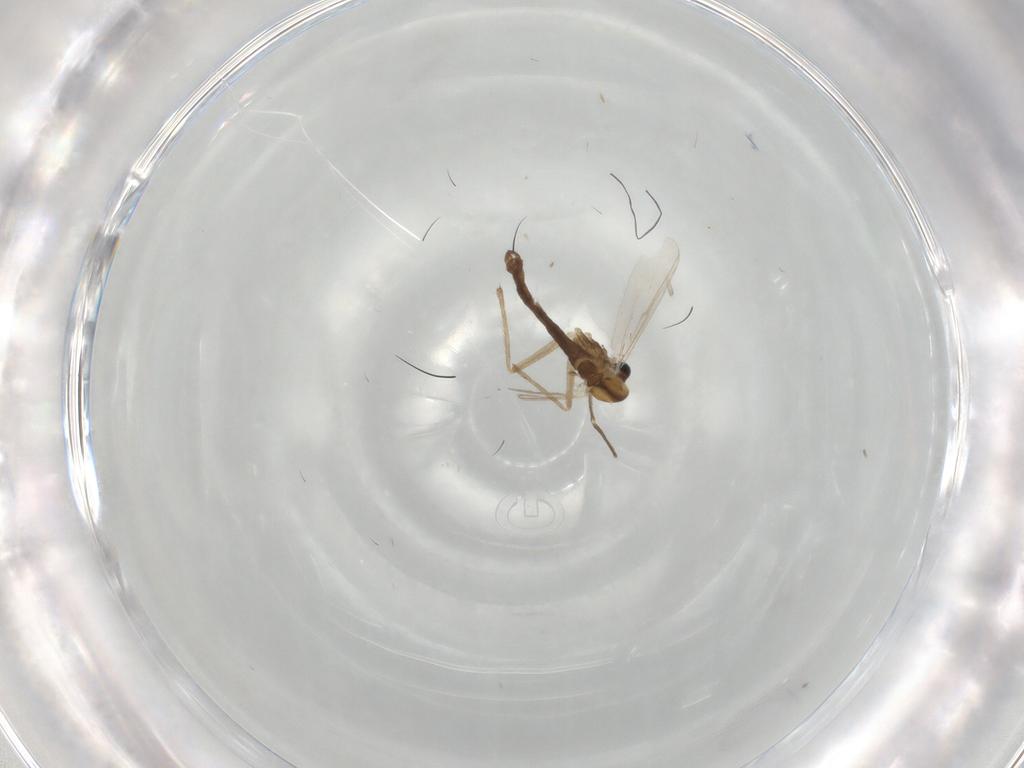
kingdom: Animalia
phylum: Arthropoda
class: Insecta
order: Diptera
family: Chironomidae
